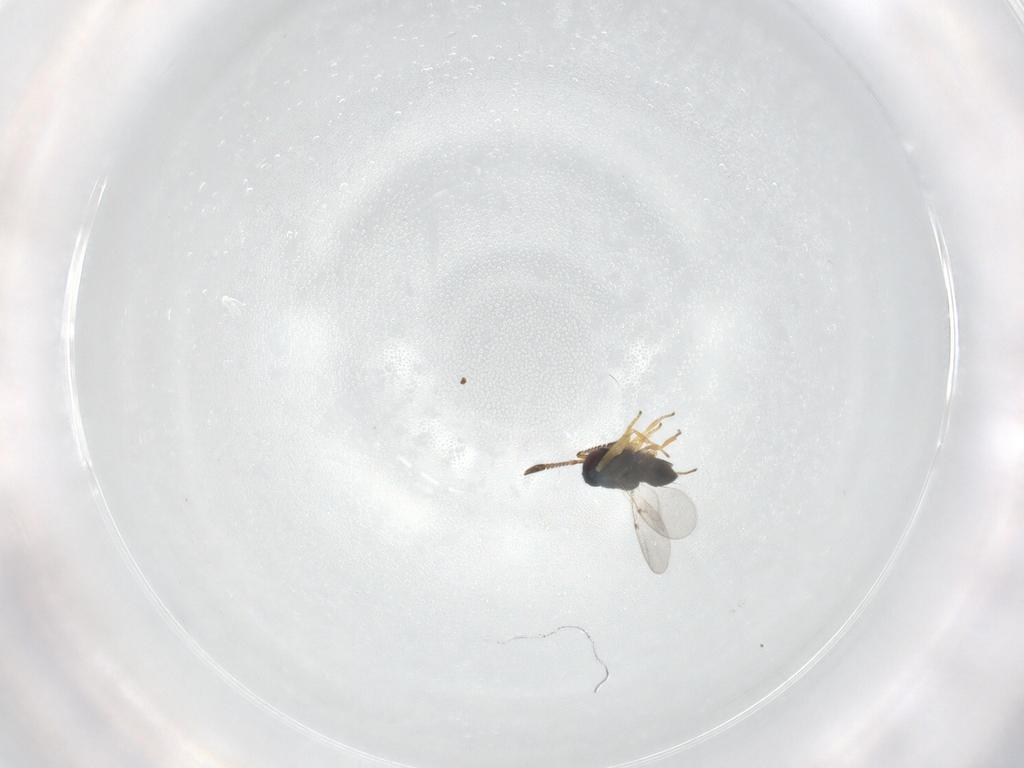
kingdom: Animalia
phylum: Arthropoda
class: Insecta
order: Hymenoptera
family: Encyrtidae
